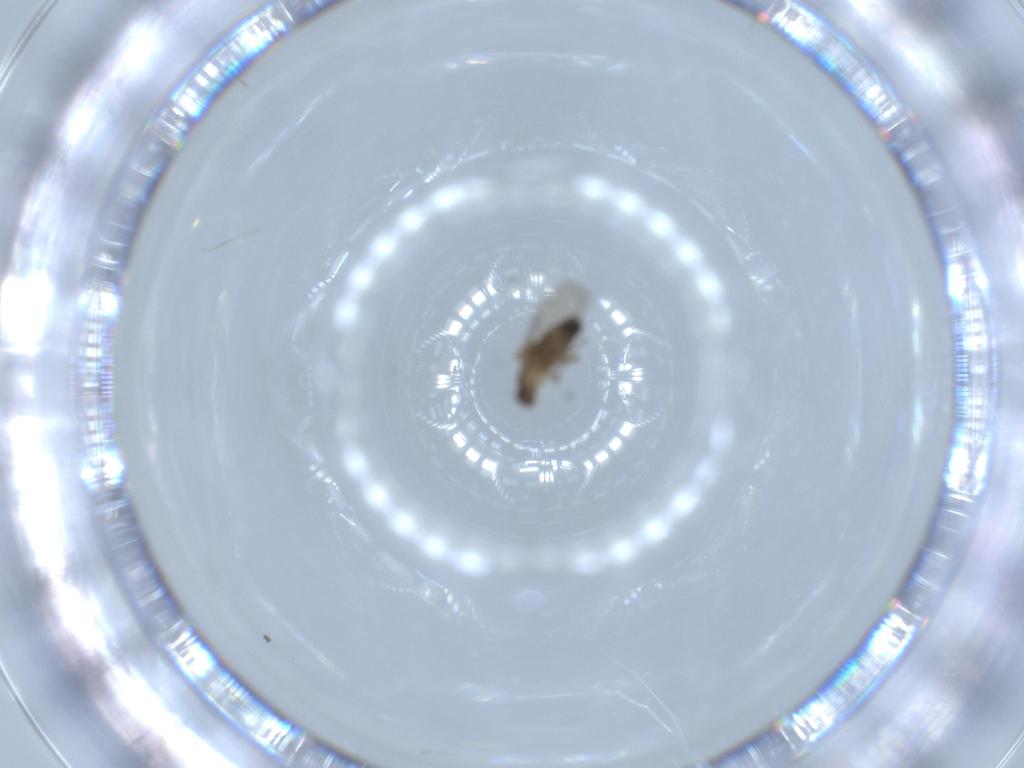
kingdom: Animalia
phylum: Arthropoda
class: Insecta
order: Diptera
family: Phoridae
